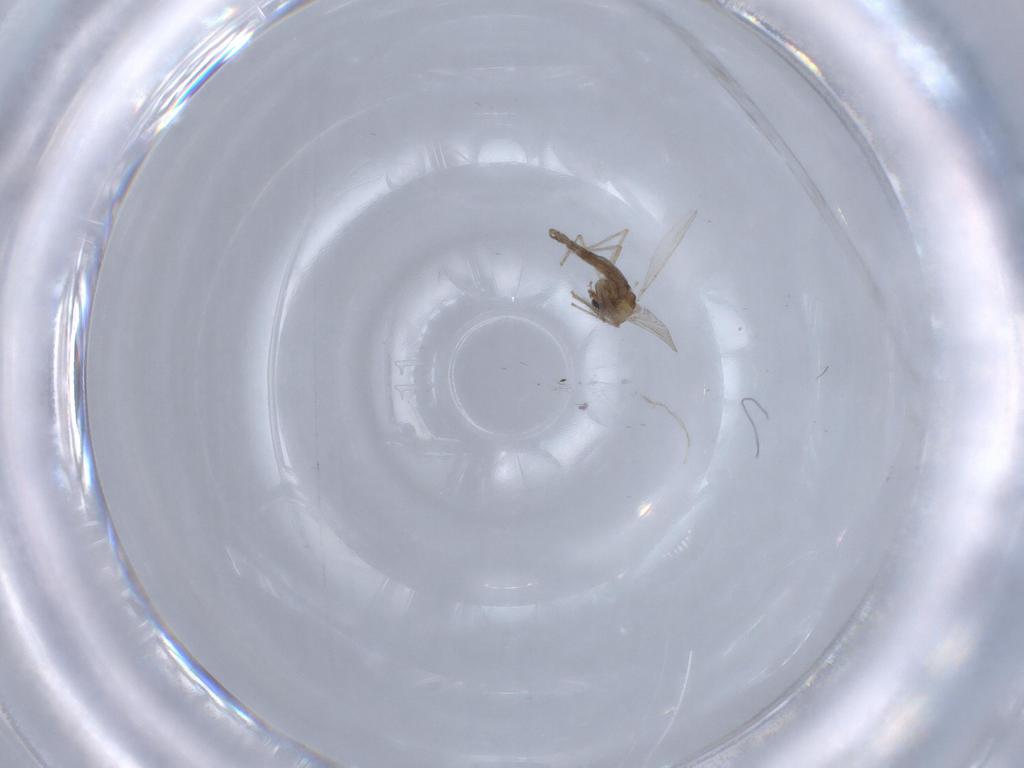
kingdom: Animalia
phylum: Arthropoda
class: Insecta
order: Diptera
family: Chironomidae
